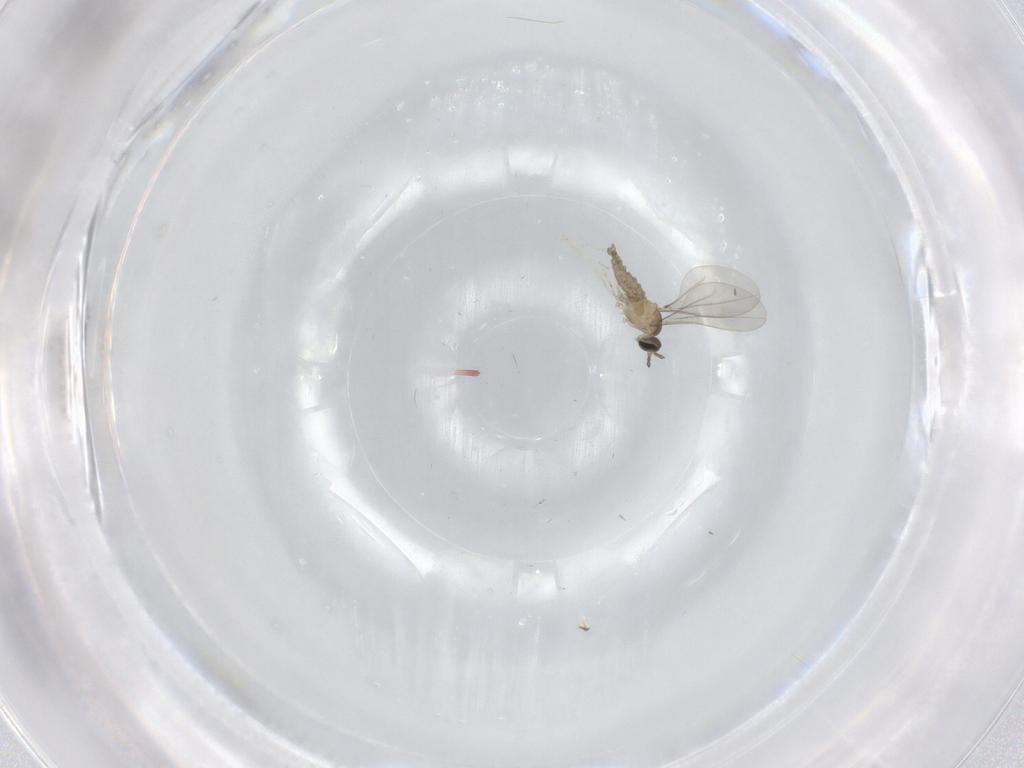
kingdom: Animalia
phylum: Arthropoda
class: Insecta
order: Diptera
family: Cecidomyiidae
